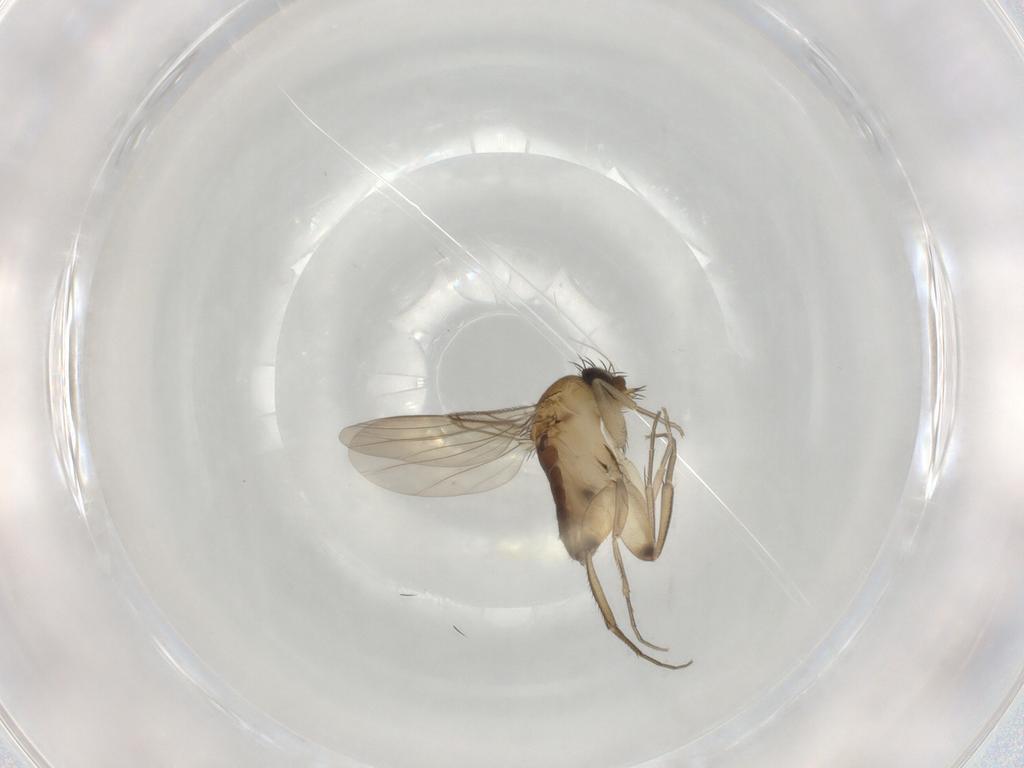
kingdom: Animalia
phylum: Arthropoda
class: Insecta
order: Diptera
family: Phoridae
